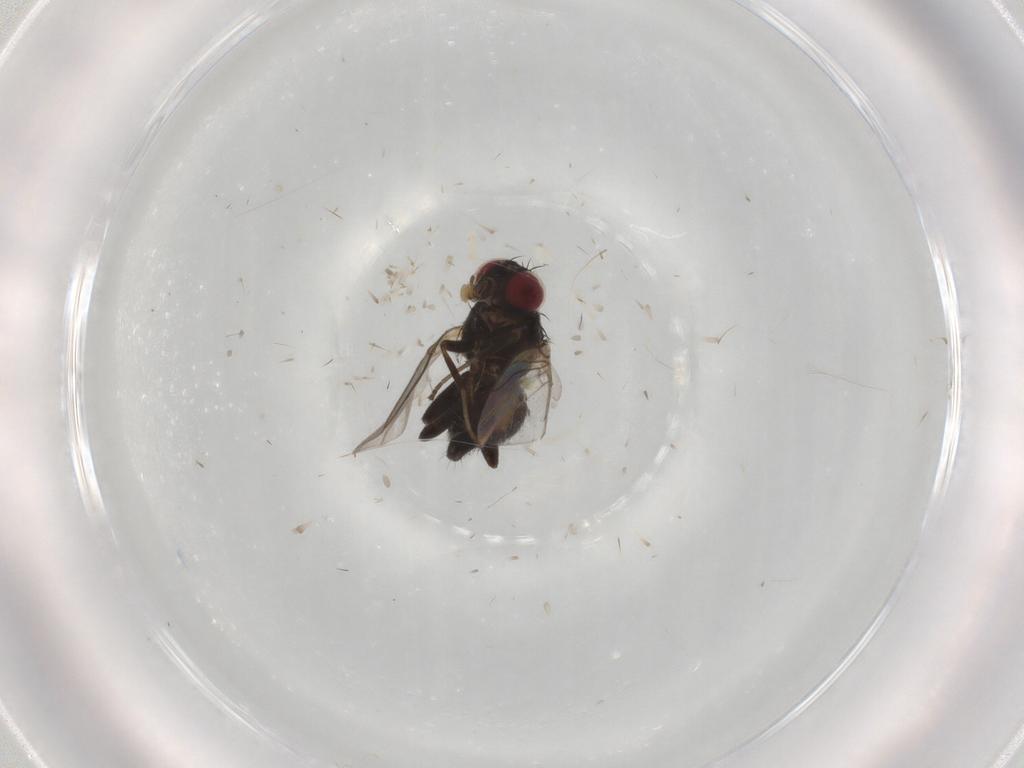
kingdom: Animalia
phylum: Arthropoda
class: Insecta
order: Diptera
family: Agromyzidae
